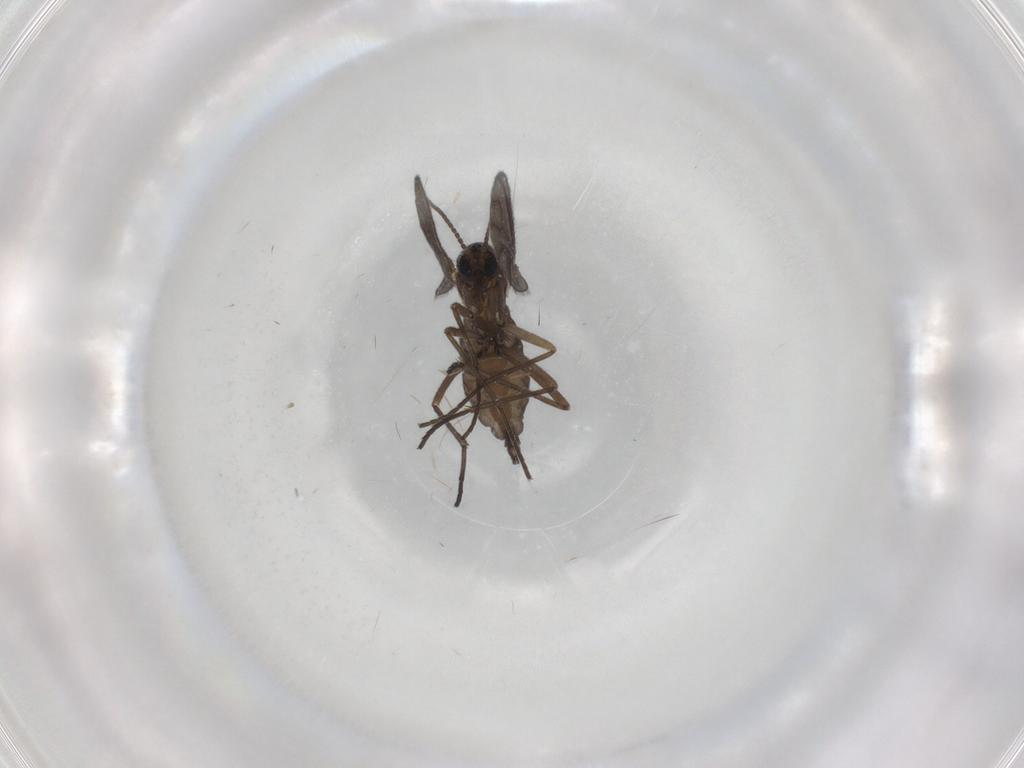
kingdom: Animalia
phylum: Arthropoda
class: Insecta
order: Diptera
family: Sciaridae
